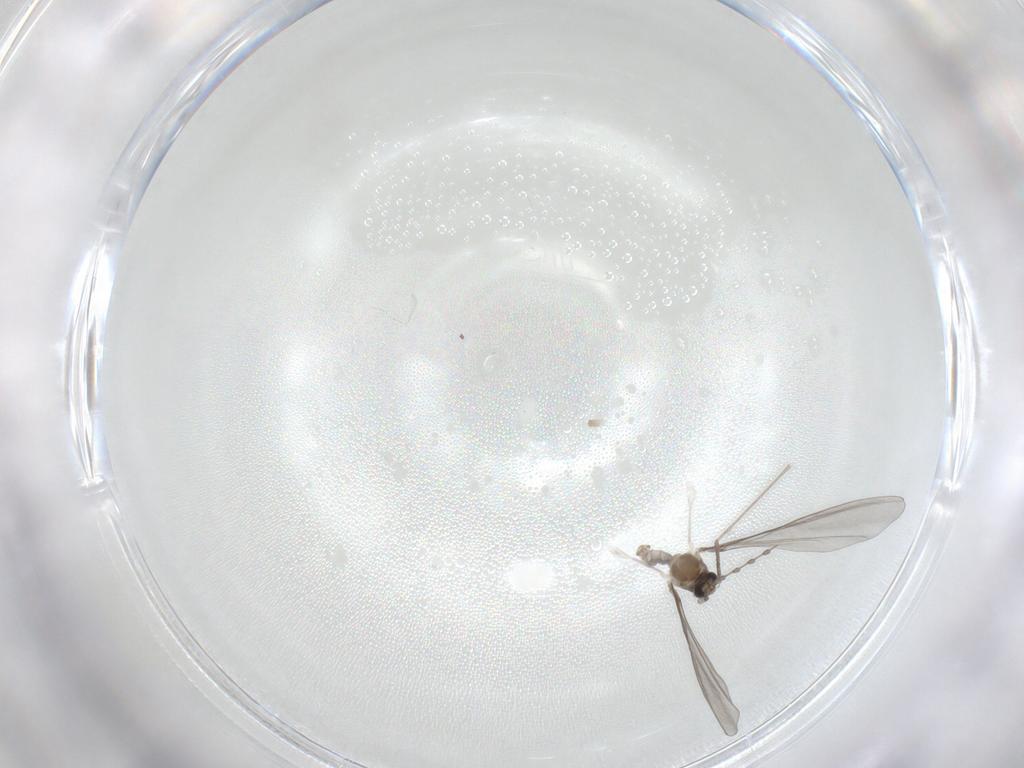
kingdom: Animalia
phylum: Arthropoda
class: Insecta
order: Diptera
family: Cecidomyiidae
